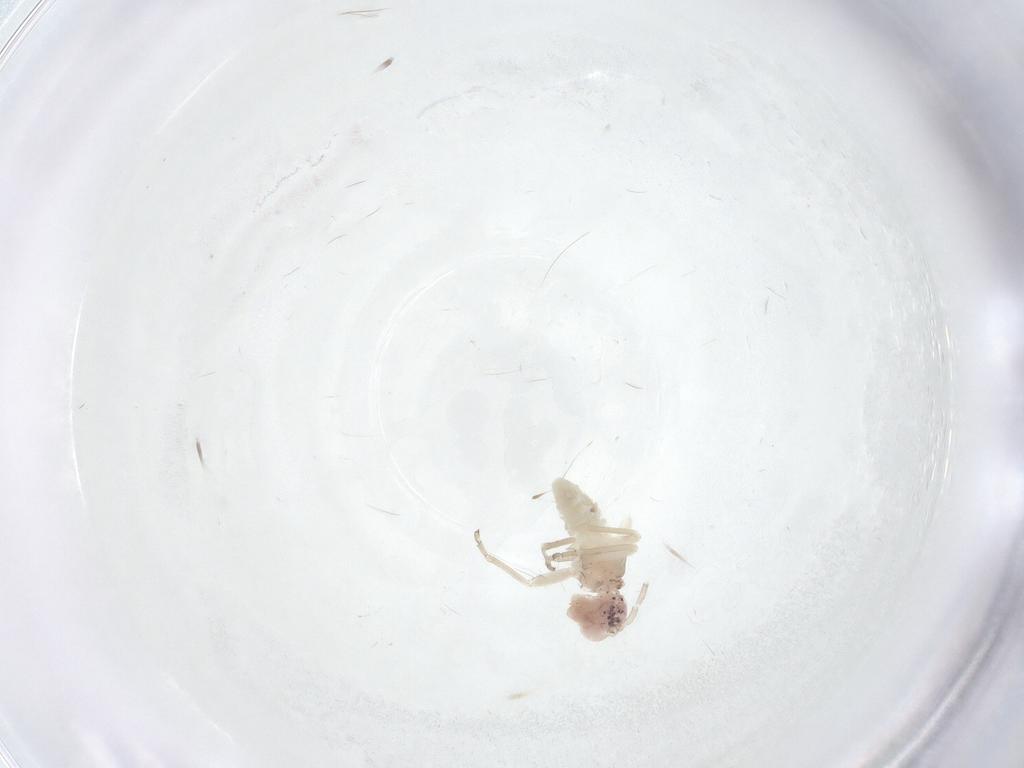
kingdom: Animalia
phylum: Arthropoda
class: Insecta
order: Psocodea
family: Caeciliusidae
